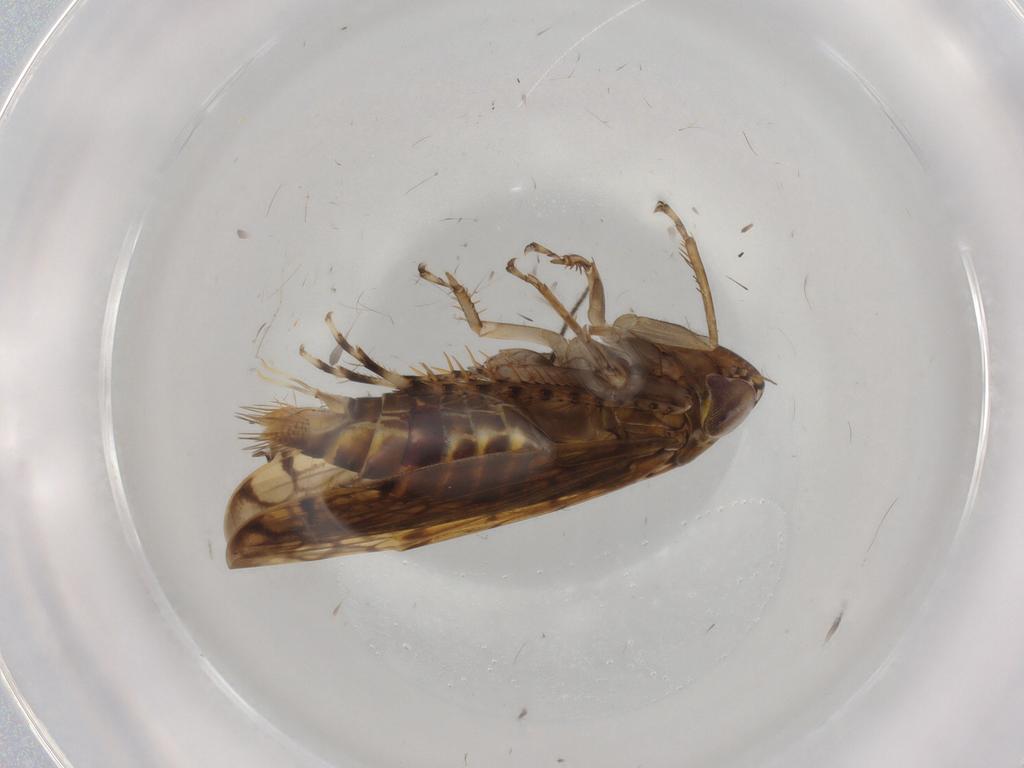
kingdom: Animalia
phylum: Arthropoda
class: Insecta
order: Hemiptera
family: Cicadellidae
